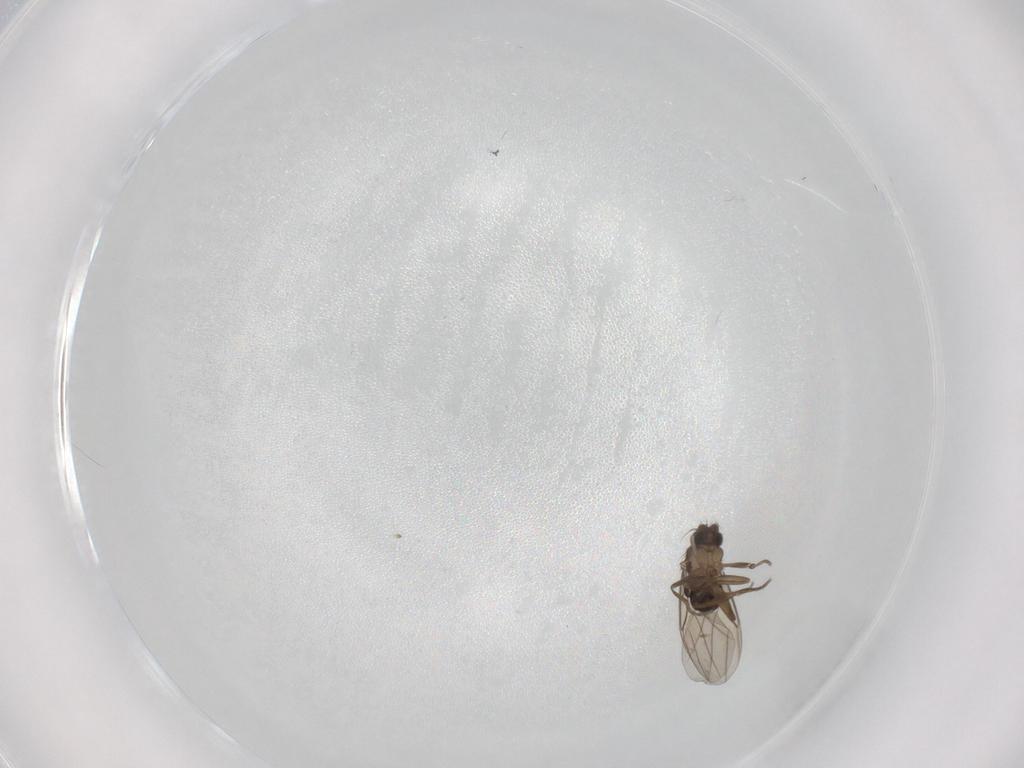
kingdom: Animalia
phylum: Arthropoda
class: Insecta
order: Diptera
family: Phoridae
